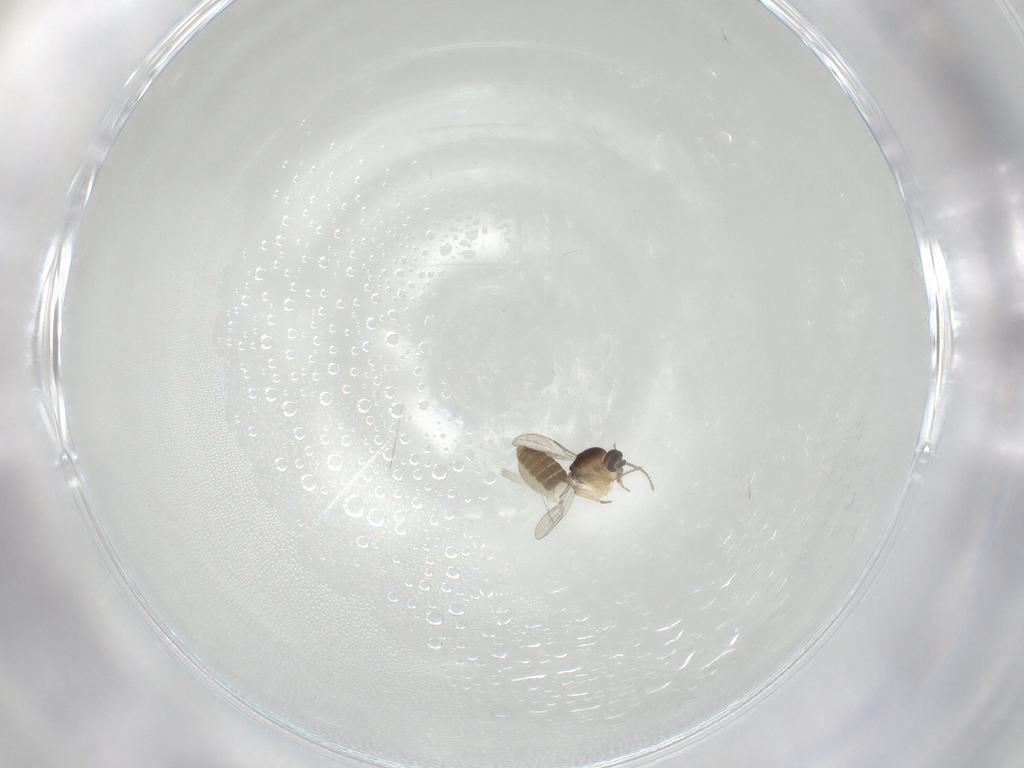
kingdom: Animalia
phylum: Arthropoda
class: Insecta
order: Diptera
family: Ceratopogonidae
